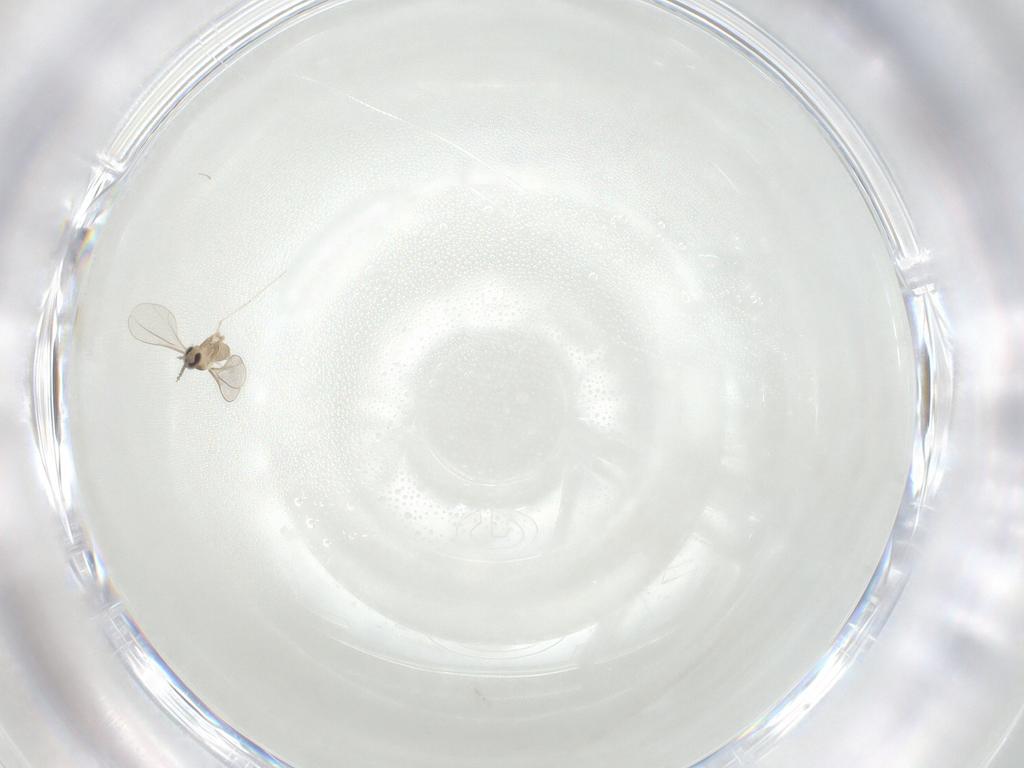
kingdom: Animalia
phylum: Arthropoda
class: Insecta
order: Diptera
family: Cecidomyiidae
